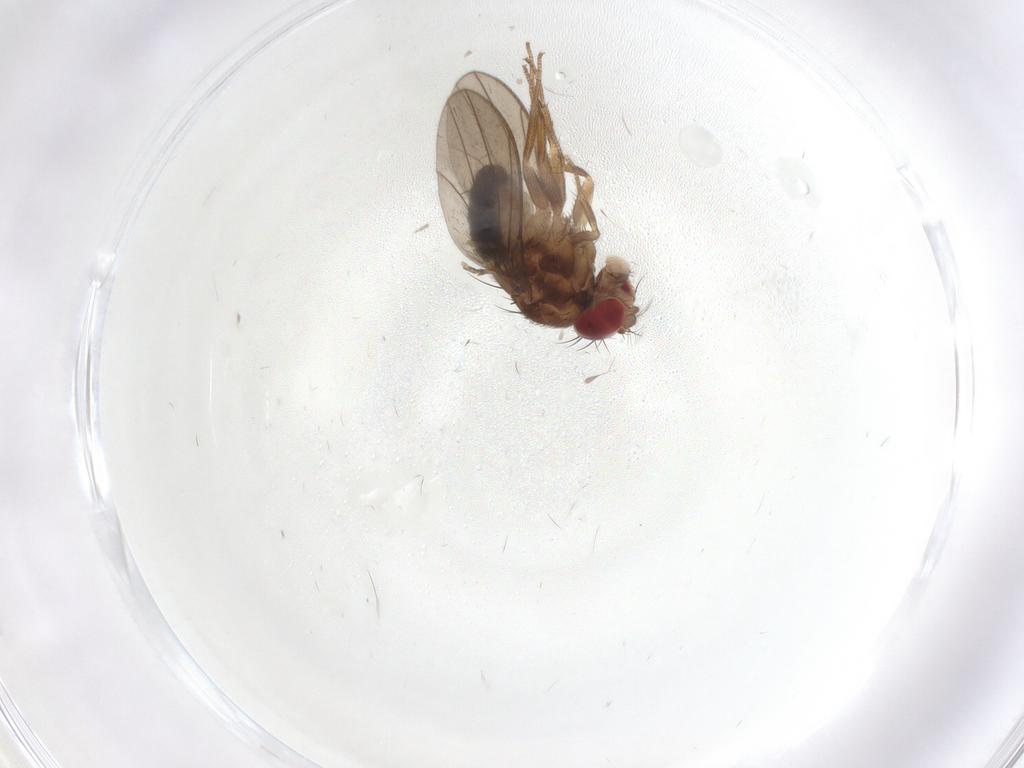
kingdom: Animalia
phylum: Arthropoda
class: Insecta
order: Diptera
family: Drosophilidae
